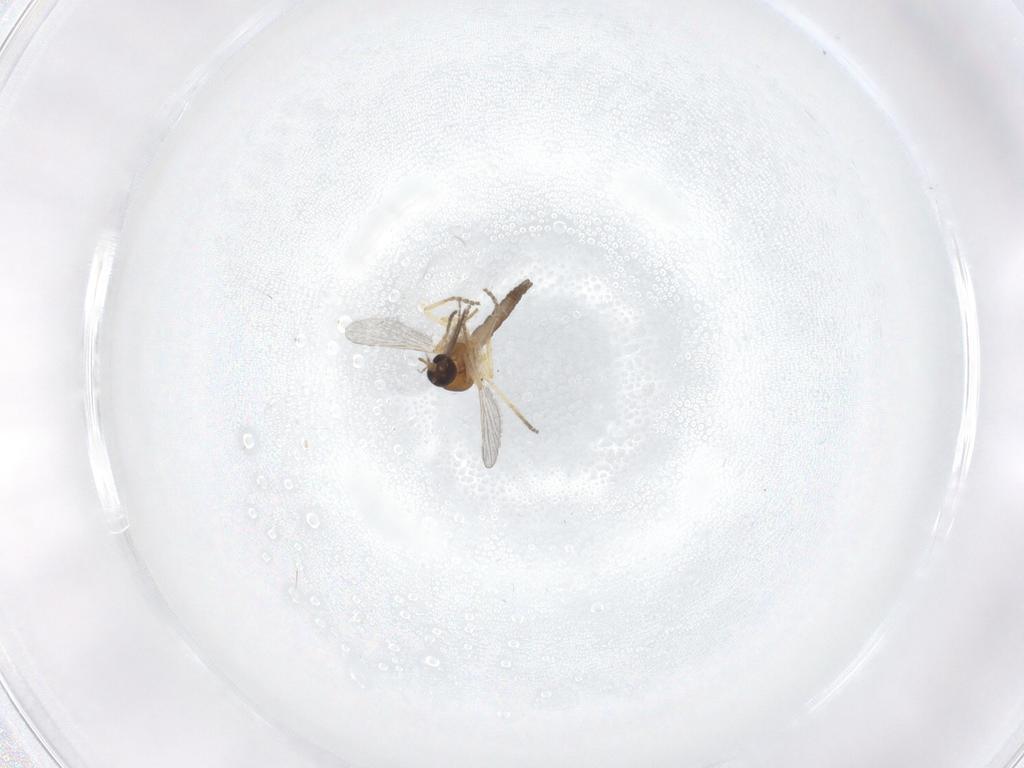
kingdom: Animalia
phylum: Arthropoda
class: Insecta
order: Diptera
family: Ceratopogonidae
